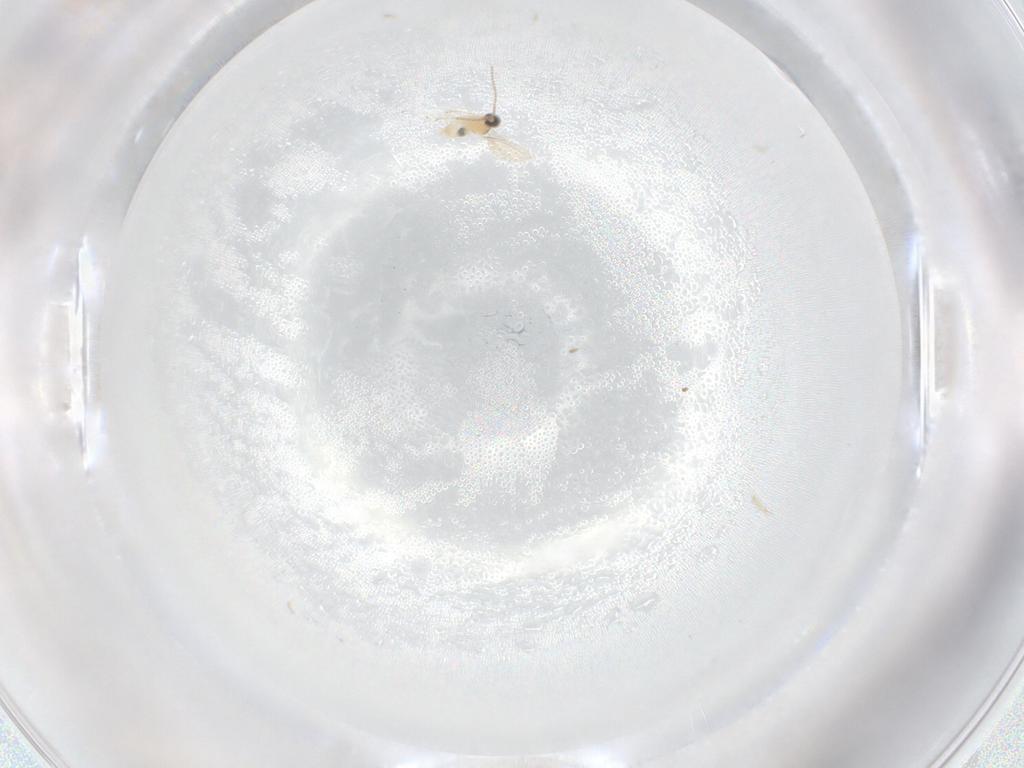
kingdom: Animalia
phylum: Arthropoda
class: Insecta
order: Diptera
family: Cecidomyiidae
